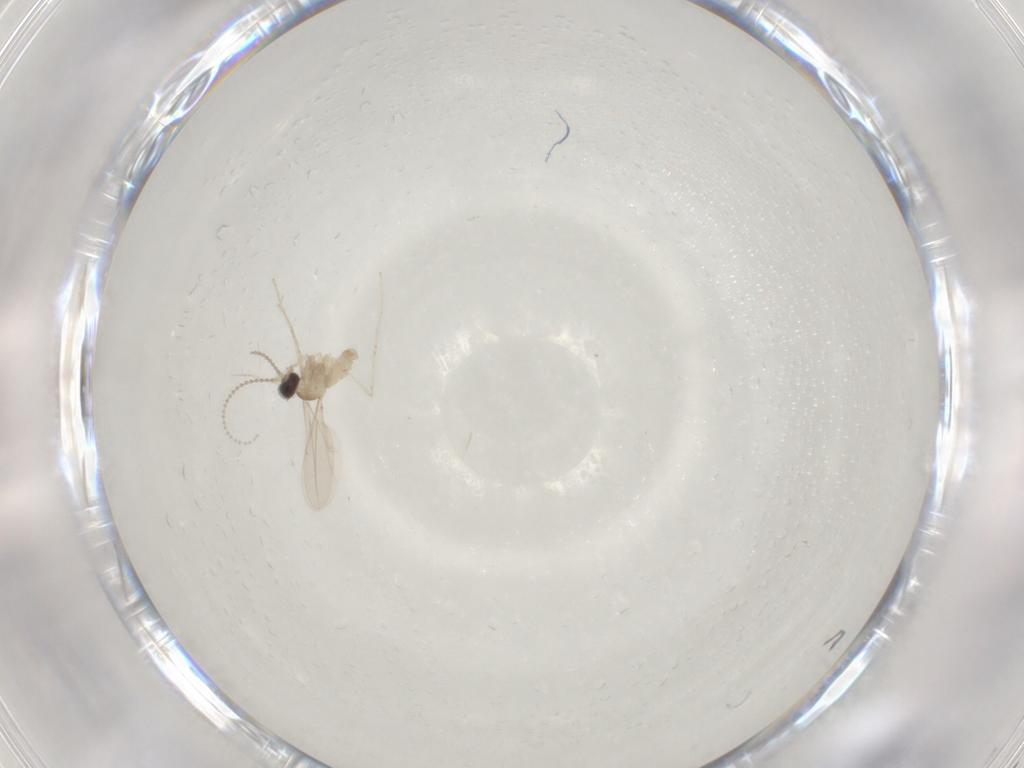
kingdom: Animalia
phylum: Arthropoda
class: Insecta
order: Diptera
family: Cecidomyiidae
